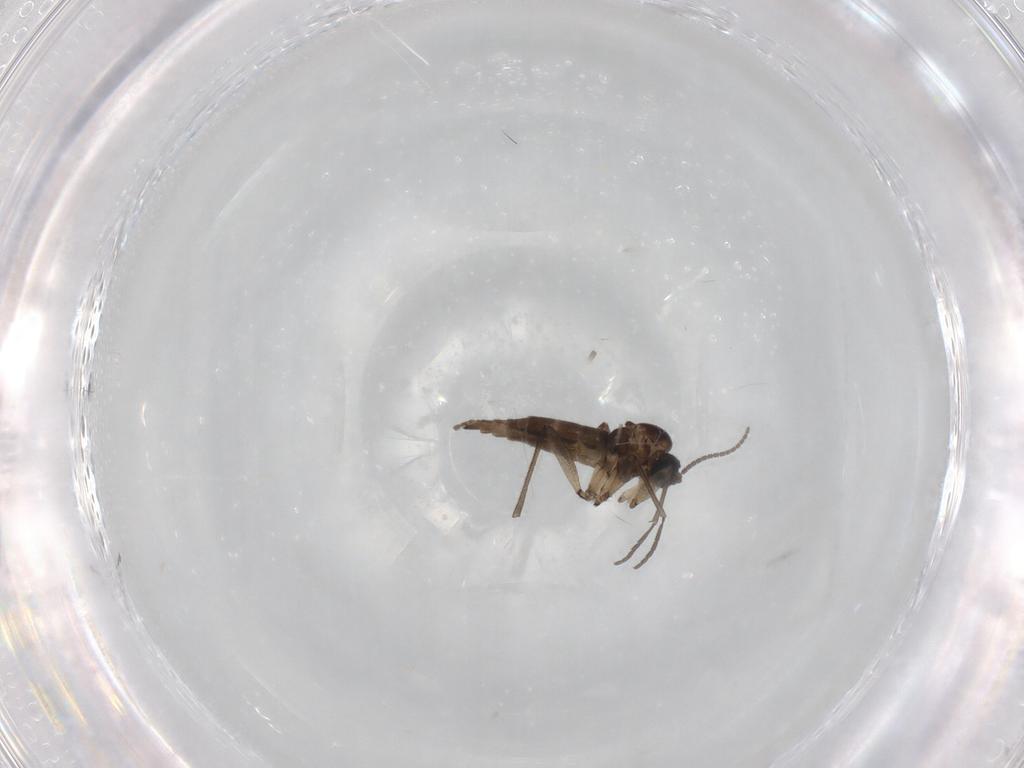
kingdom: Animalia
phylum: Arthropoda
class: Insecta
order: Diptera
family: Sciaridae
